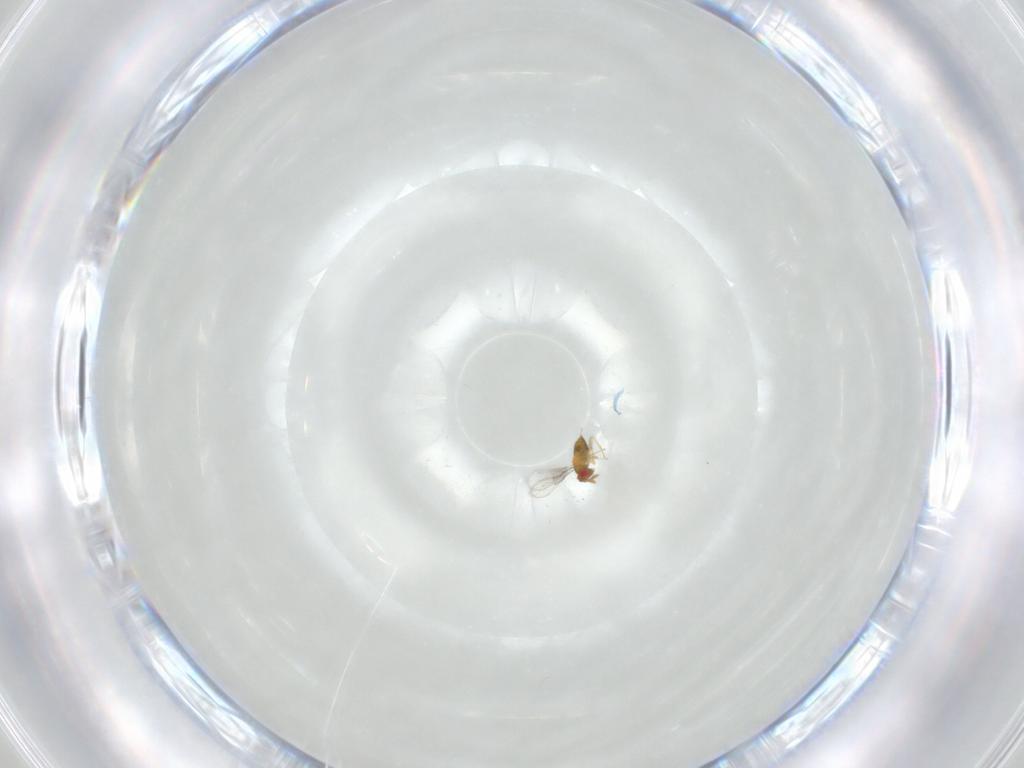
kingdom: Animalia
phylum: Arthropoda
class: Insecta
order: Hymenoptera
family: Trichogrammatidae
